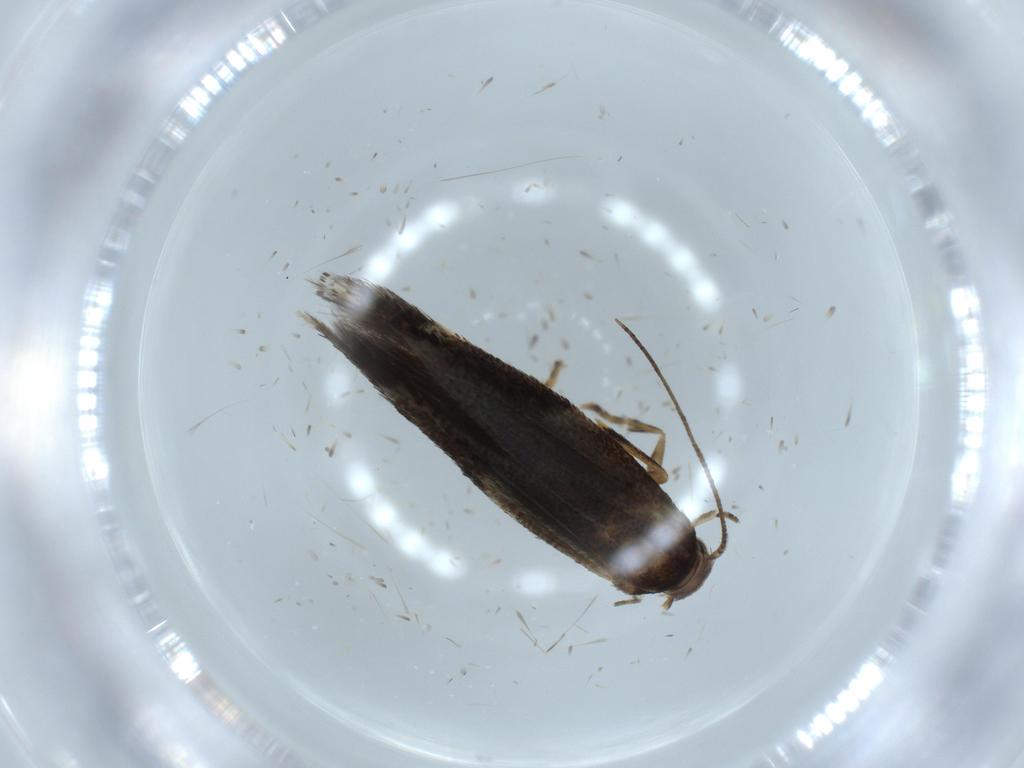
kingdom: Animalia
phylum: Arthropoda
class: Insecta
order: Lepidoptera
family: Elachistidae
